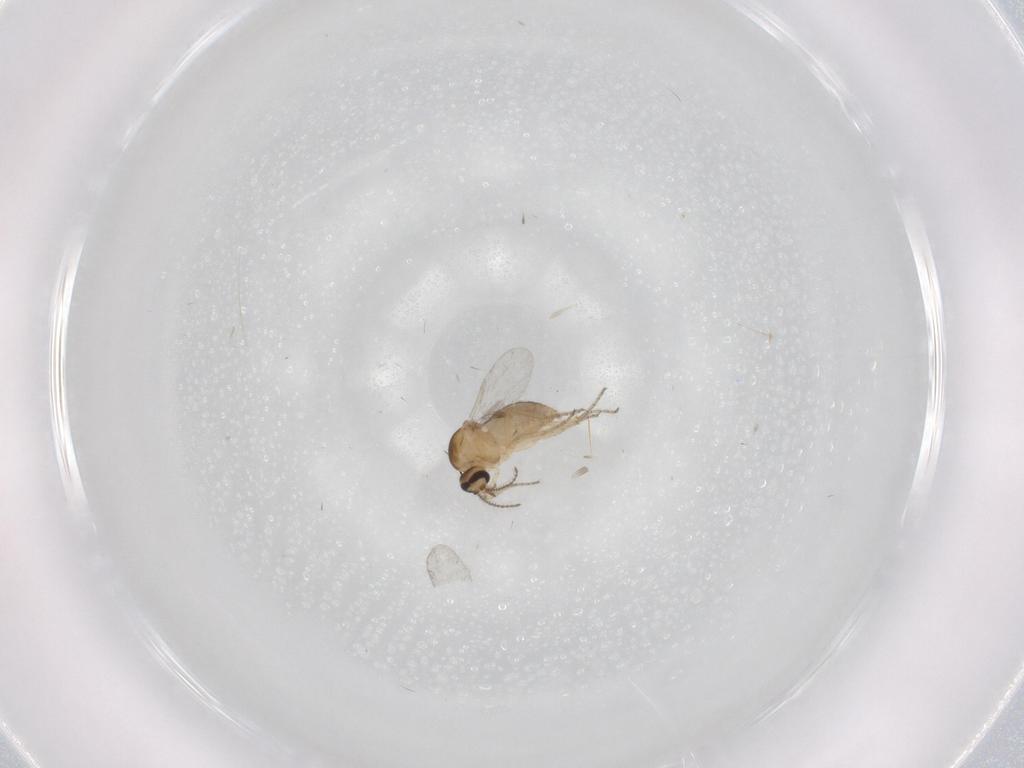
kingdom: Animalia
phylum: Arthropoda
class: Insecta
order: Diptera
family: Ceratopogonidae
